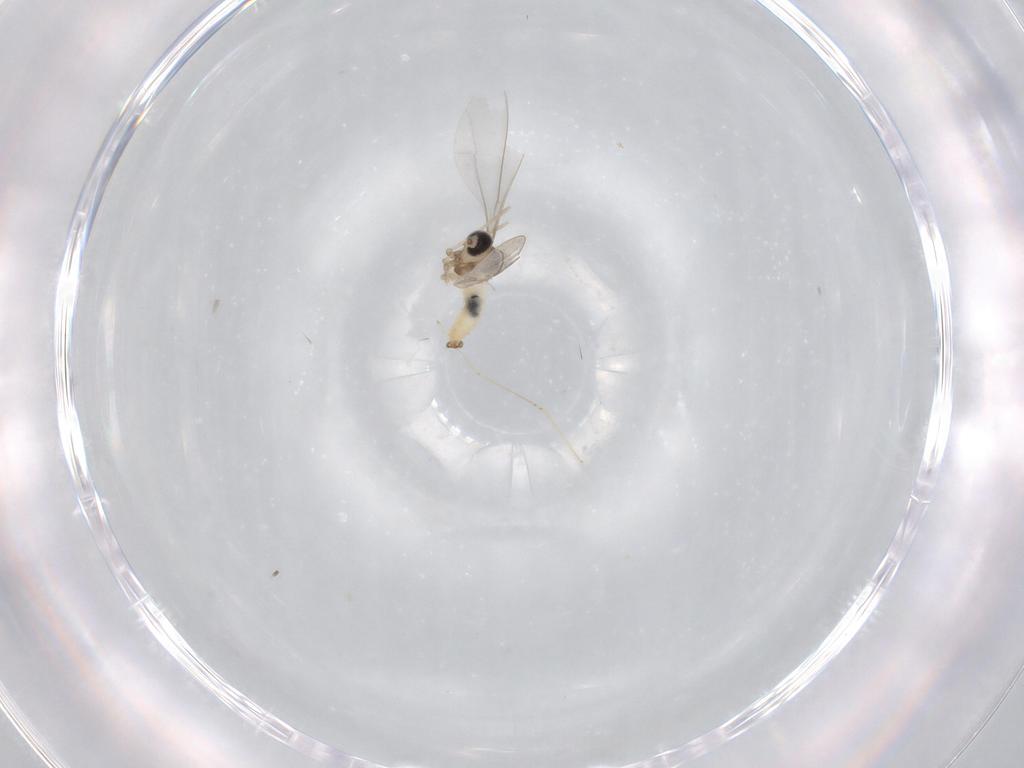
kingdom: Animalia
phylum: Arthropoda
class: Insecta
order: Diptera
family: Cecidomyiidae
